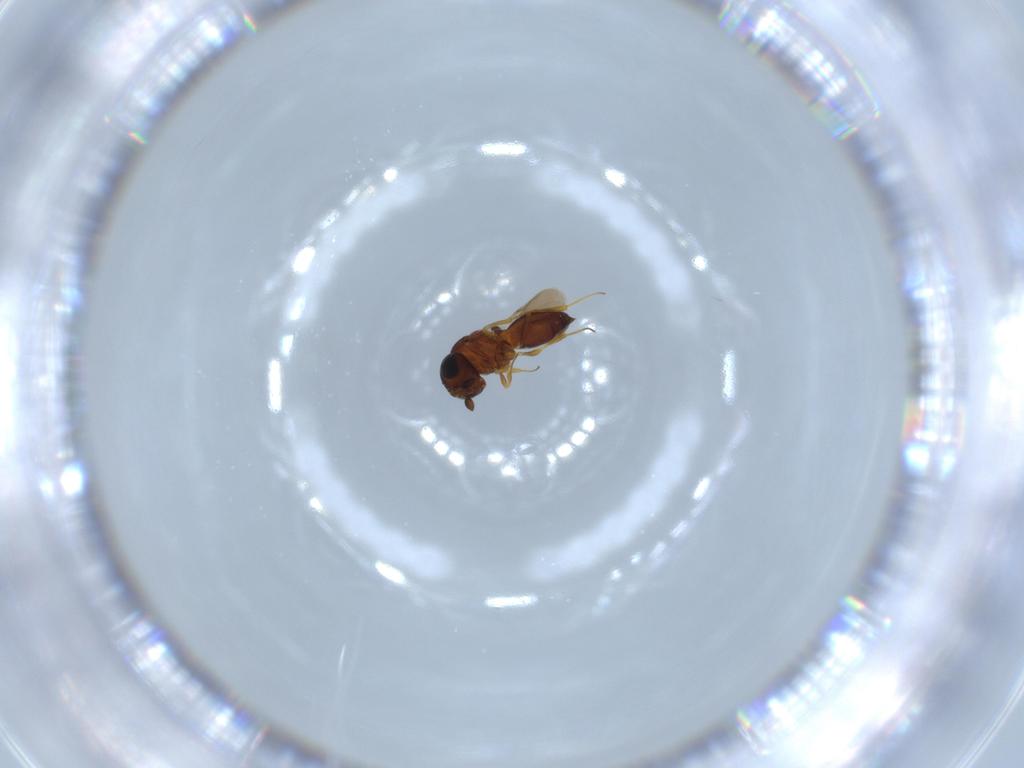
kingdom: Animalia
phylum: Arthropoda
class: Insecta
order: Hymenoptera
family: Scelionidae
